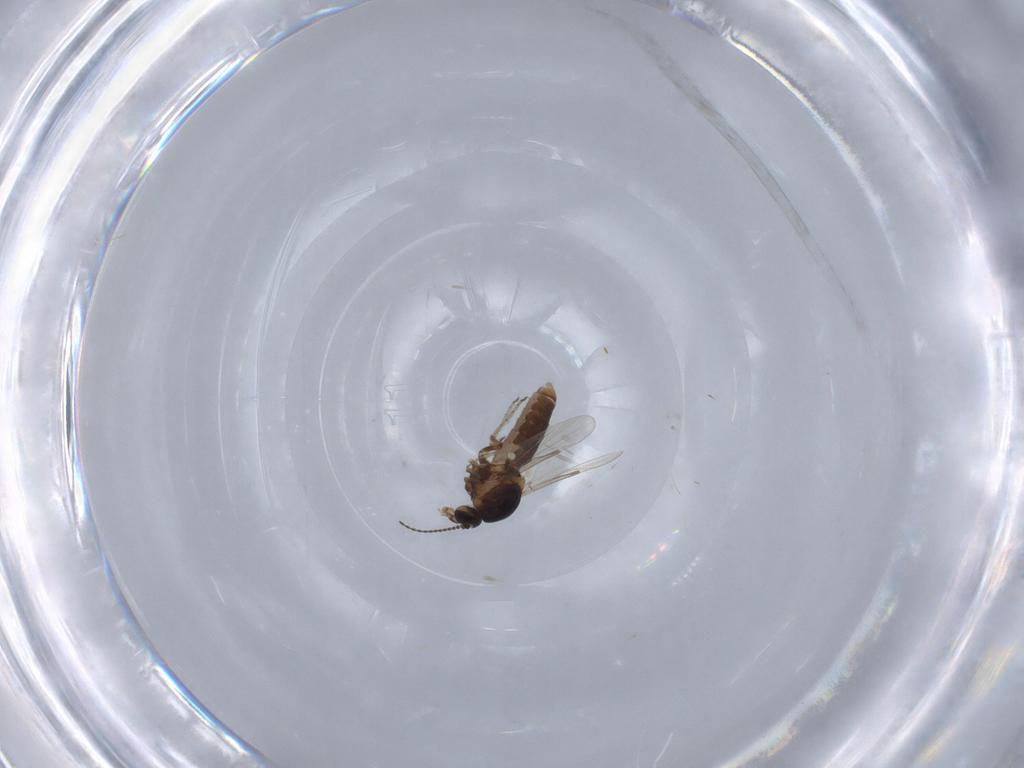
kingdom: Animalia
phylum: Arthropoda
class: Insecta
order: Diptera
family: Ceratopogonidae
